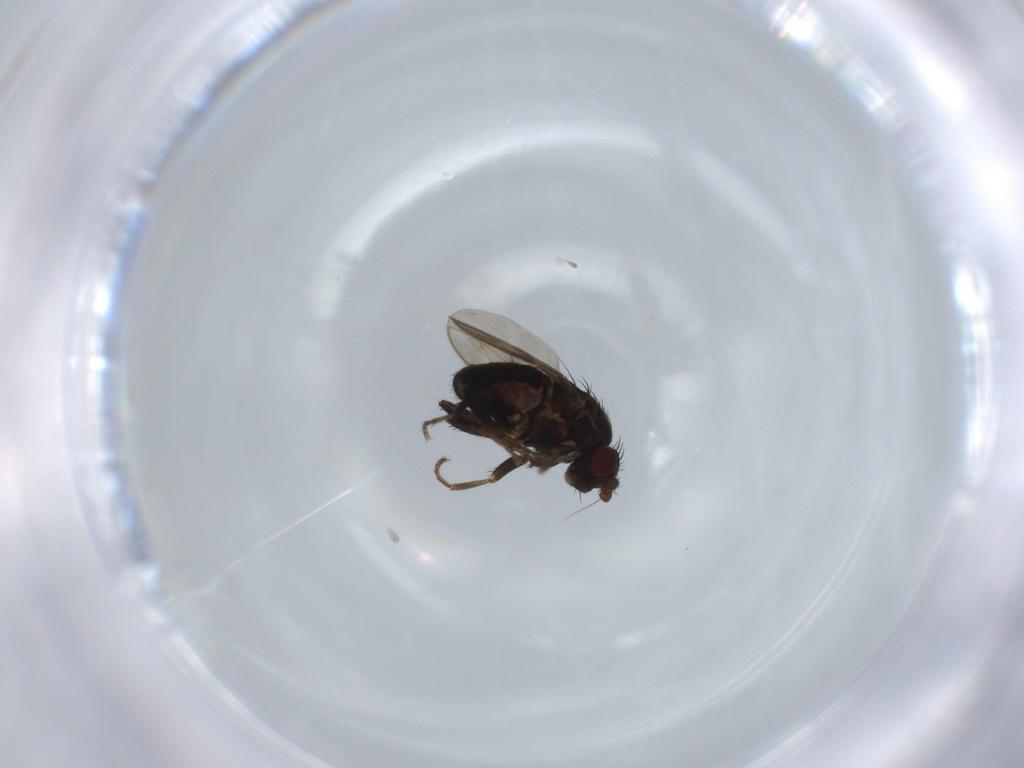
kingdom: Animalia
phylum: Arthropoda
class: Insecta
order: Diptera
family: Sphaeroceridae
